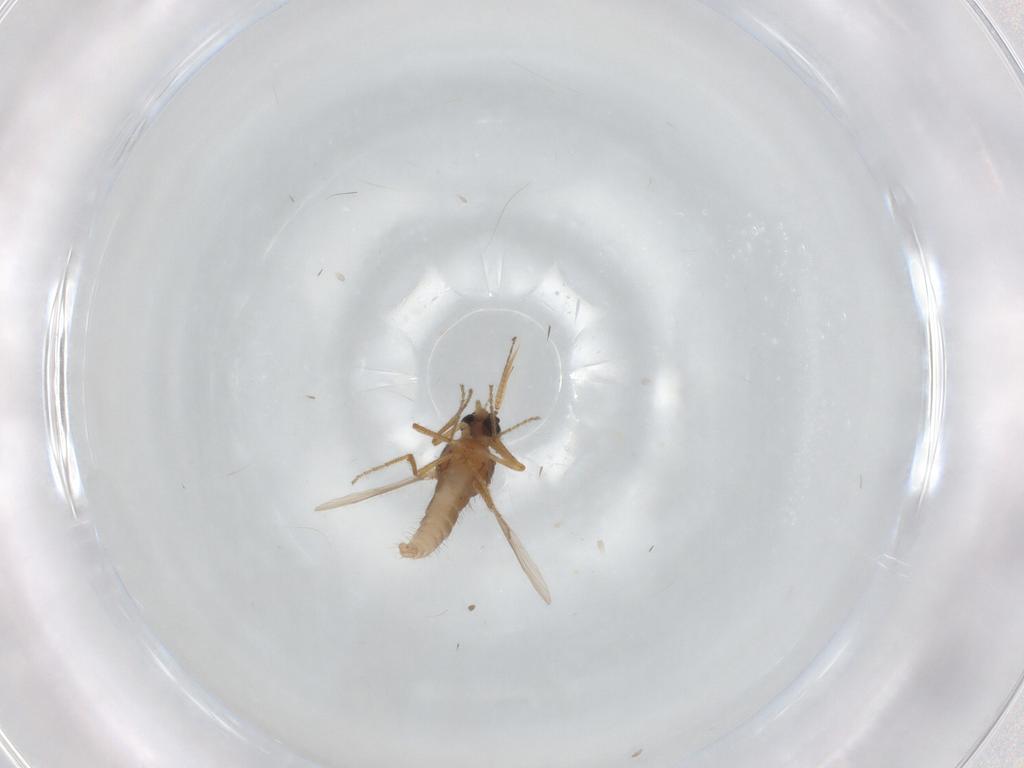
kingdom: Animalia
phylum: Arthropoda
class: Insecta
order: Diptera
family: Ceratopogonidae
